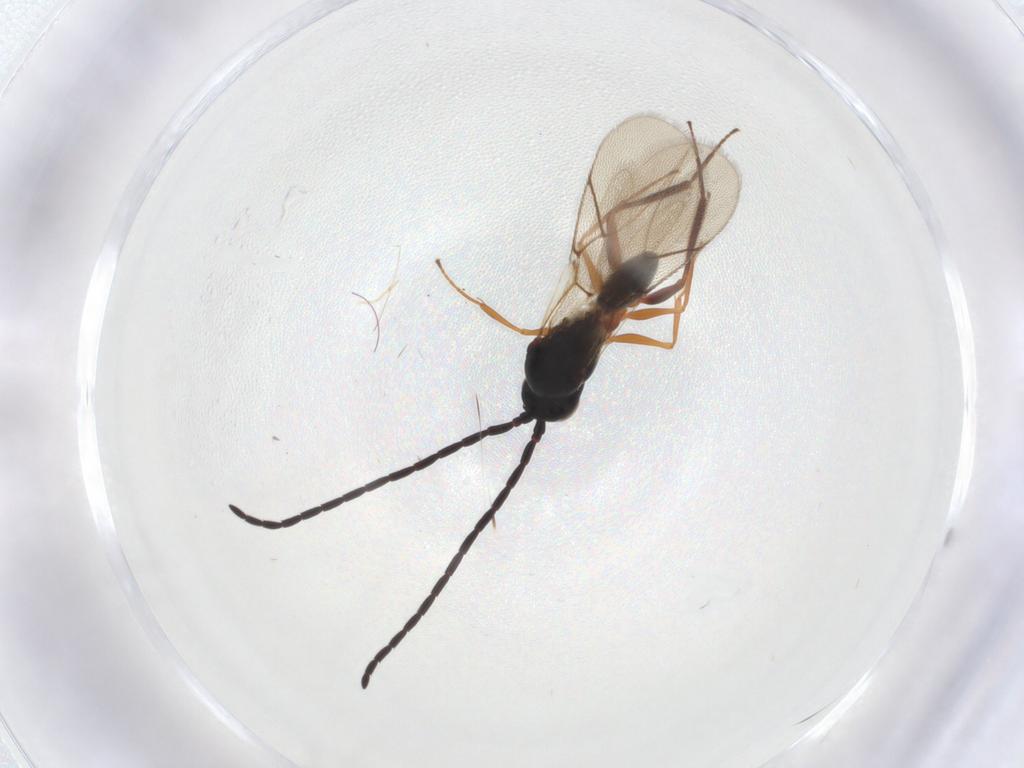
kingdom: Animalia
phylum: Arthropoda
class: Insecta
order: Hymenoptera
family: Figitidae
